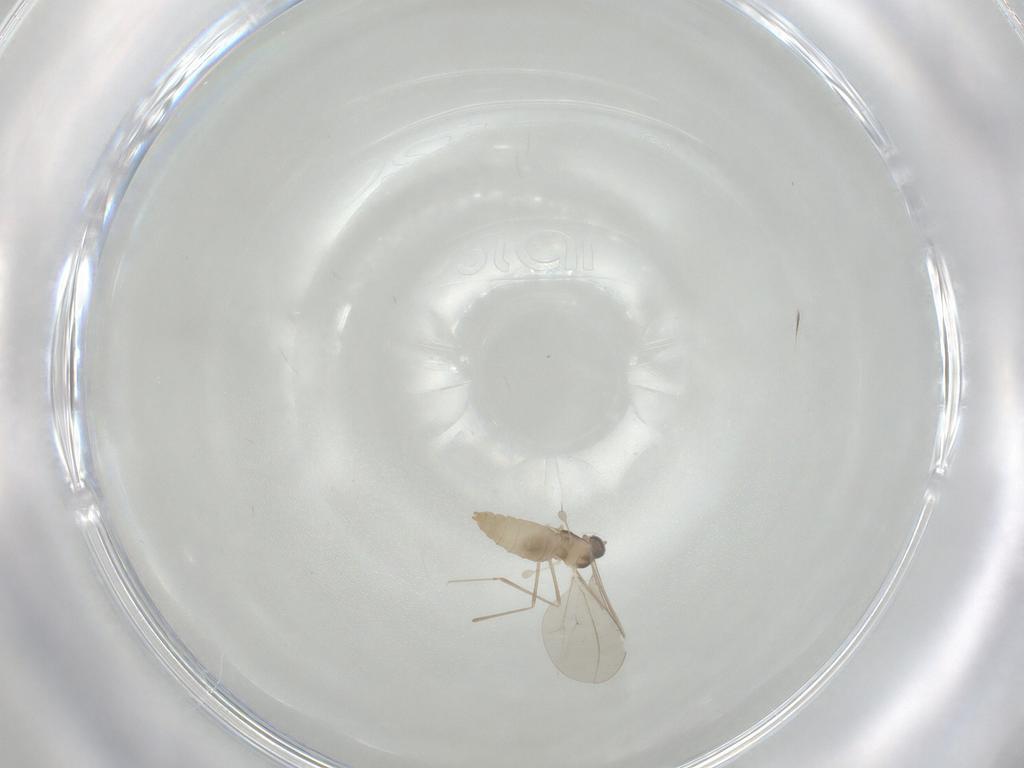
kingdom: Animalia
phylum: Arthropoda
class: Insecta
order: Diptera
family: Cecidomyiidae
